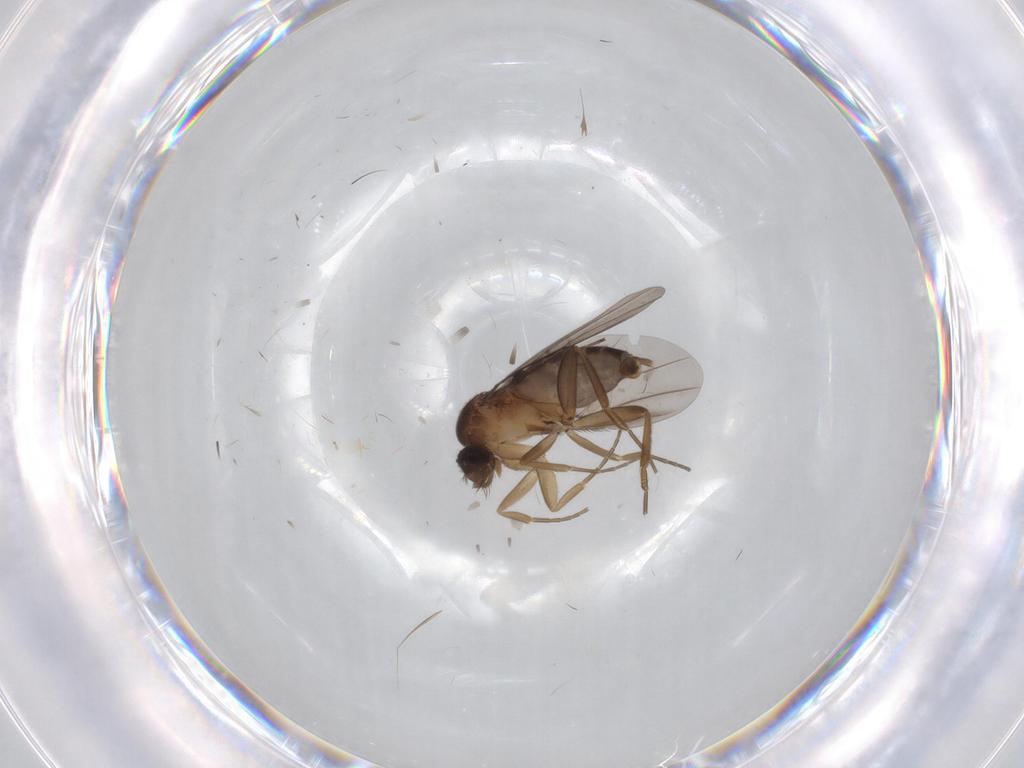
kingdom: Animalia
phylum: Arthropoda
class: Insecta
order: Diptera
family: Phoridae
